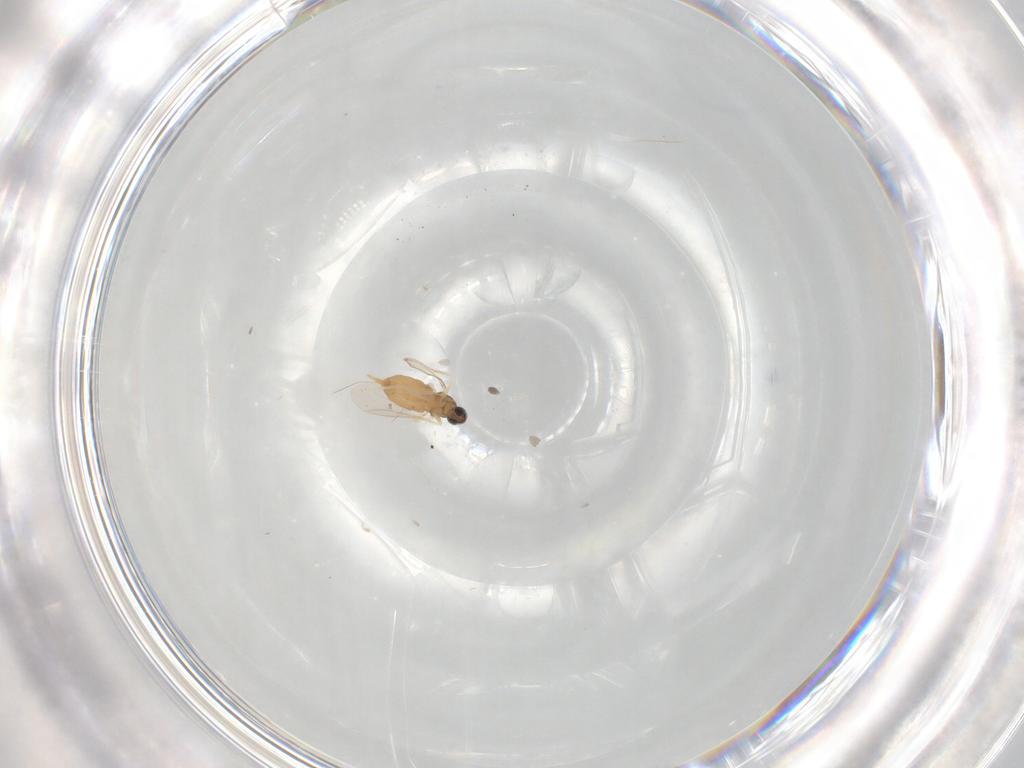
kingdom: Animalia
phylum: Arthropoda
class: Insecta
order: Diptera
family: Cecidomyiidae
